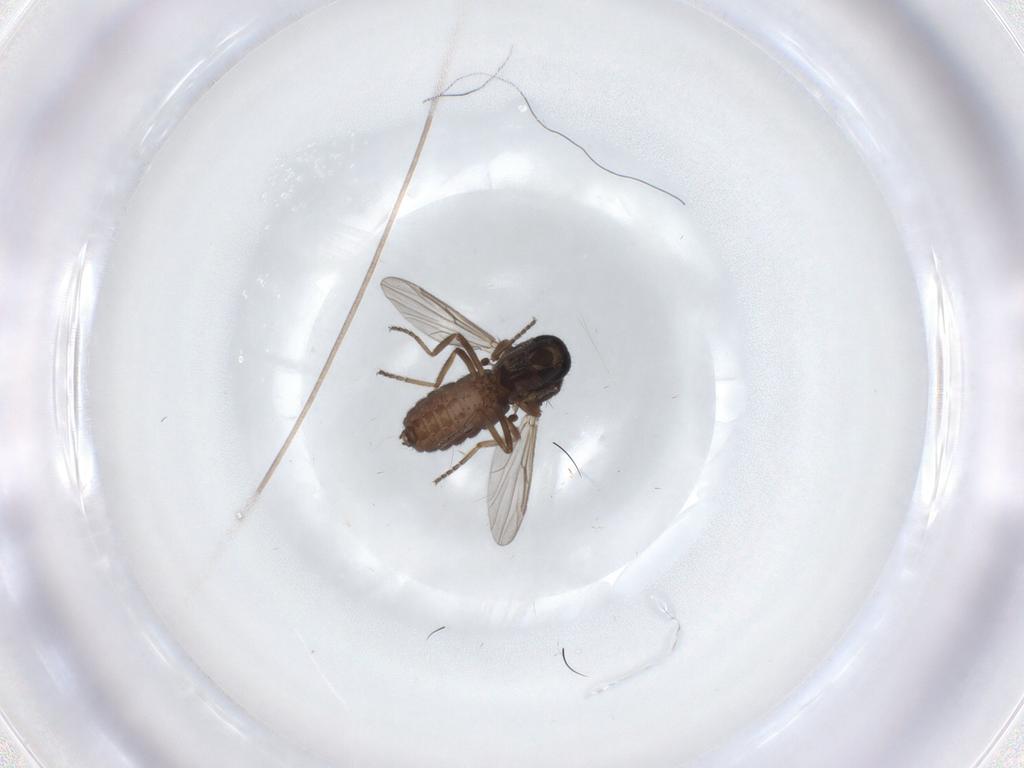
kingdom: Animalia
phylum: Arthropoda
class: Insecta
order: Diptera
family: Ceratopogonidae
